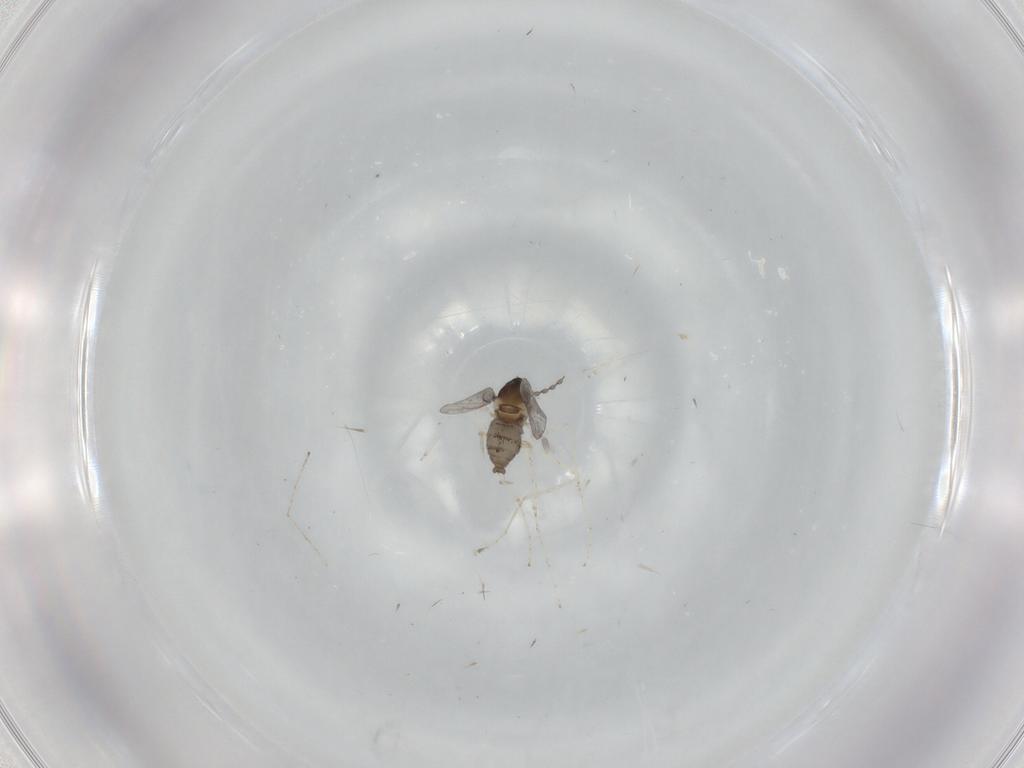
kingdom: Animalia
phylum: Arthropoda
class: Insecta
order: Diptera
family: Cecidomyiidae
